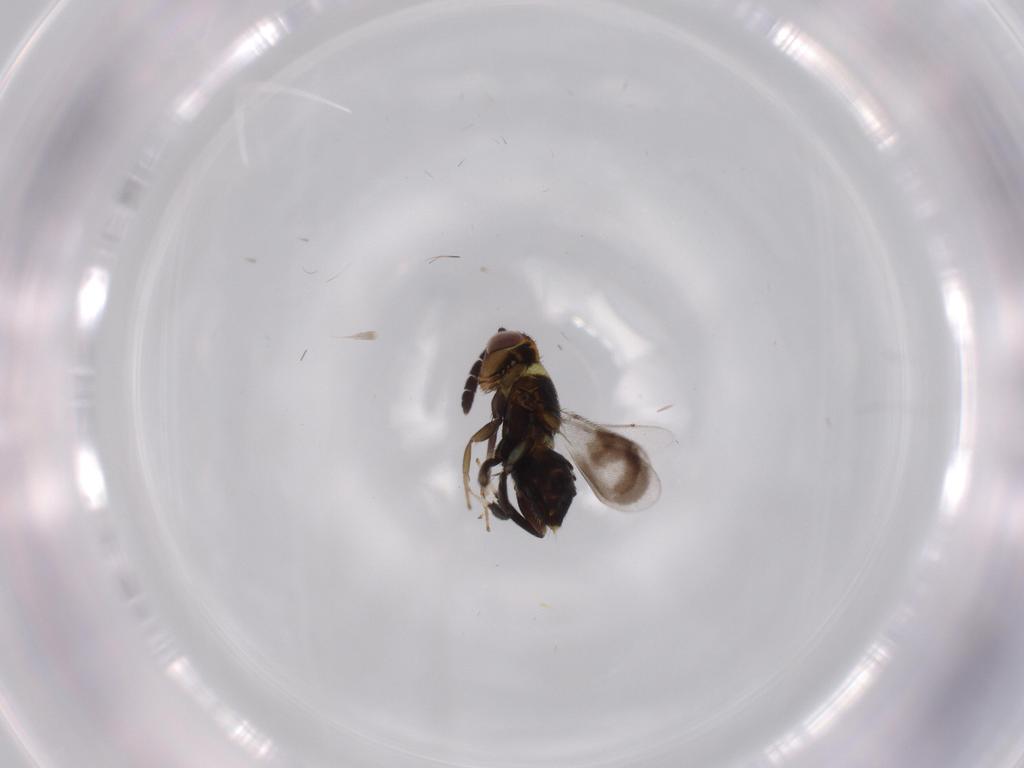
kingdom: Animalia
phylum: Arthropoda
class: Insecta
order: Hymenoptera
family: Aphelinidae
